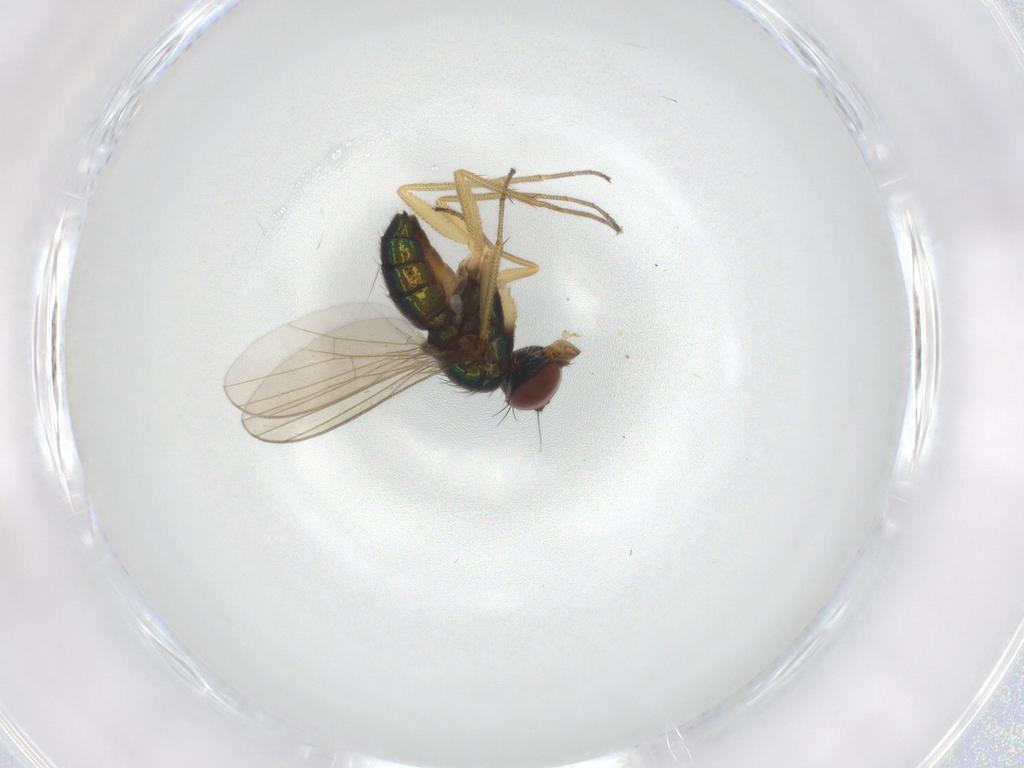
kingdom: Animalia
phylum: Arthropoda
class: Insecta
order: Diptera
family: Dolichopodidae
